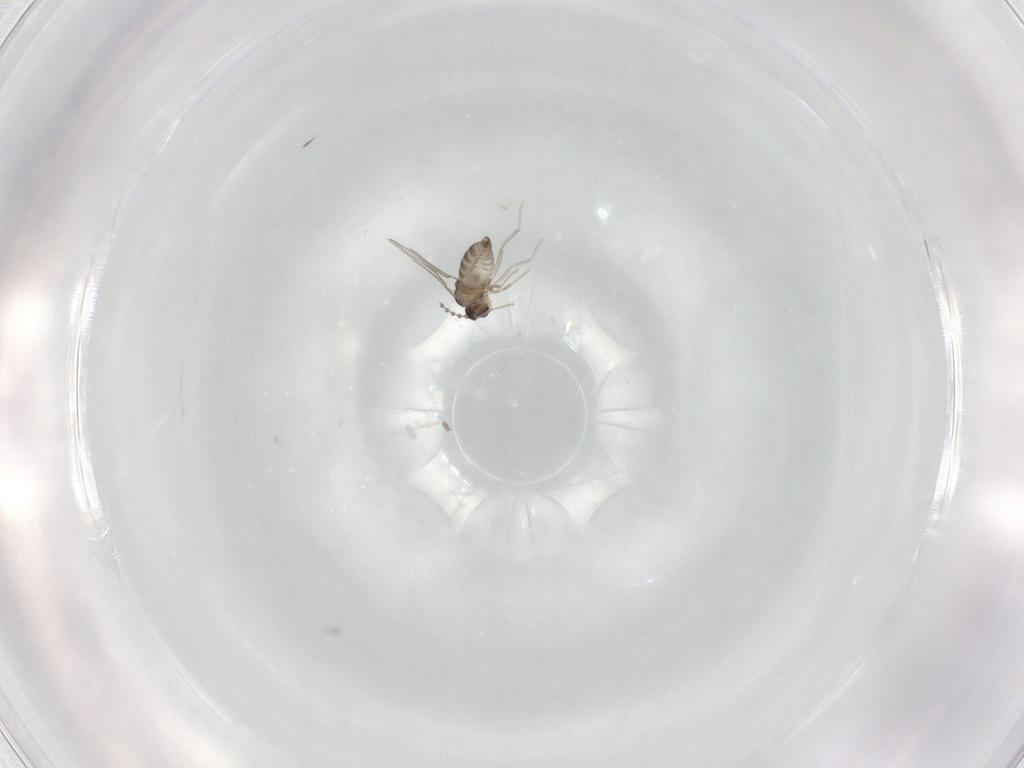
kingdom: Animalia
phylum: Arthropoda
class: Insecta
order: Diptera
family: Cecidomyiidae
